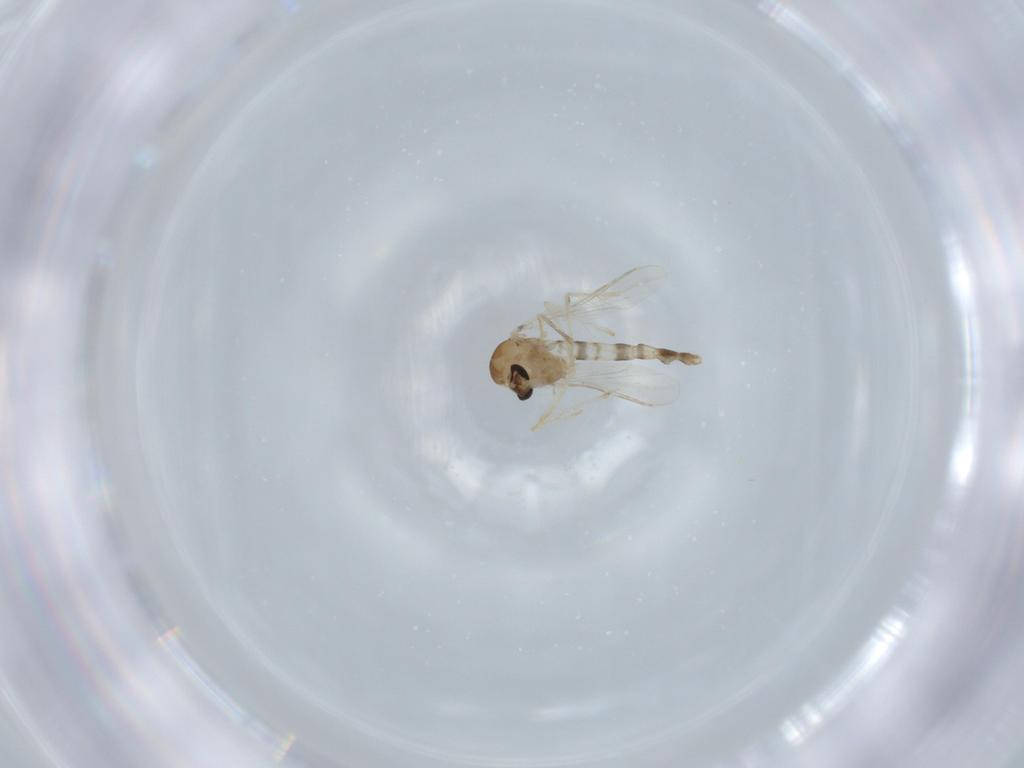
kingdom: Animalia
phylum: Arthropoda
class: Insecta
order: Diptera
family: Chironomidae
